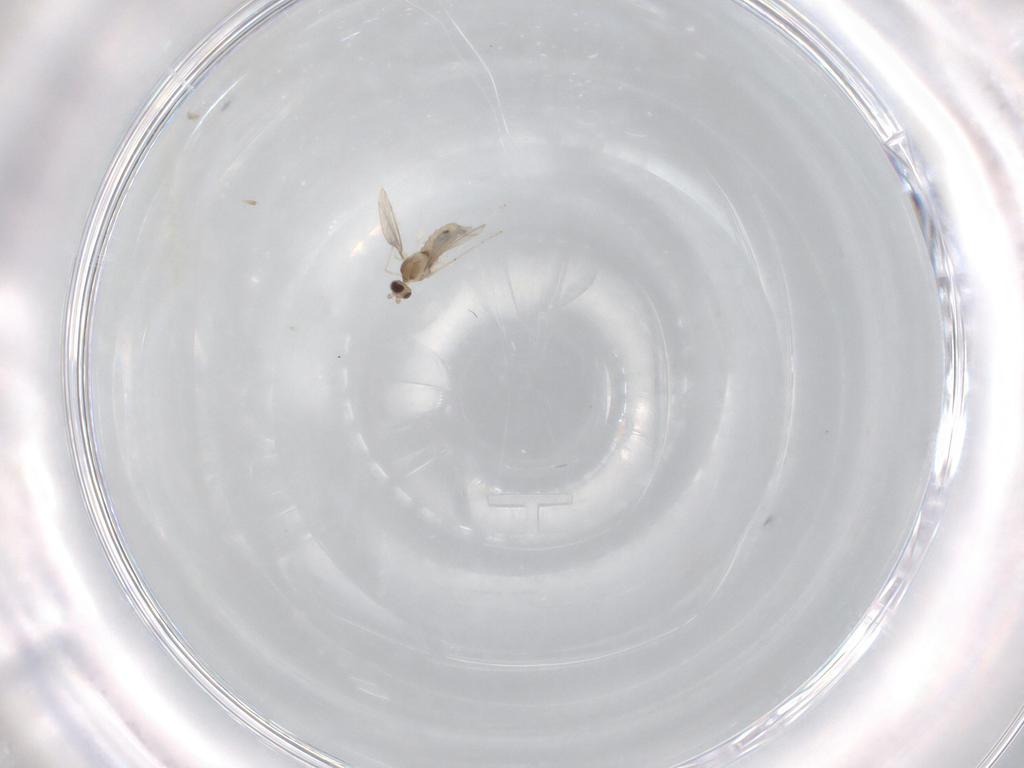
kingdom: Animalia
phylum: Arthropoda
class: Insecta
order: Diptera
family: Cecidomyiidae
